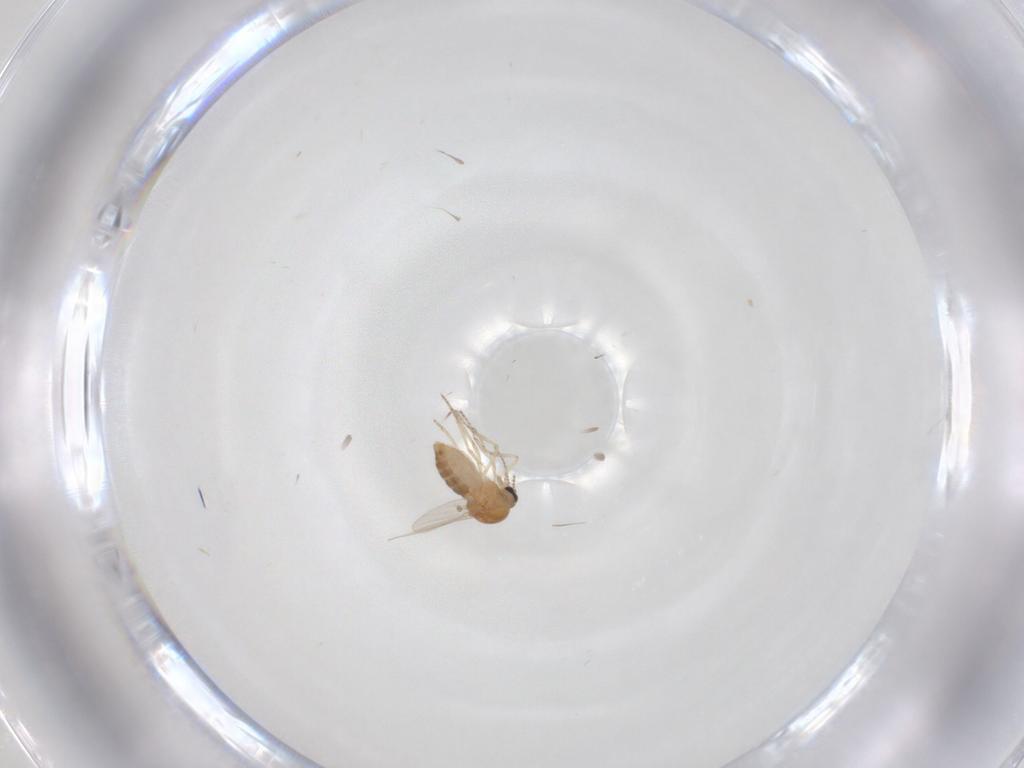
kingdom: Animalia
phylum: Arthropoda
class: Insecta
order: Diptera
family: Ceratopogonidae
